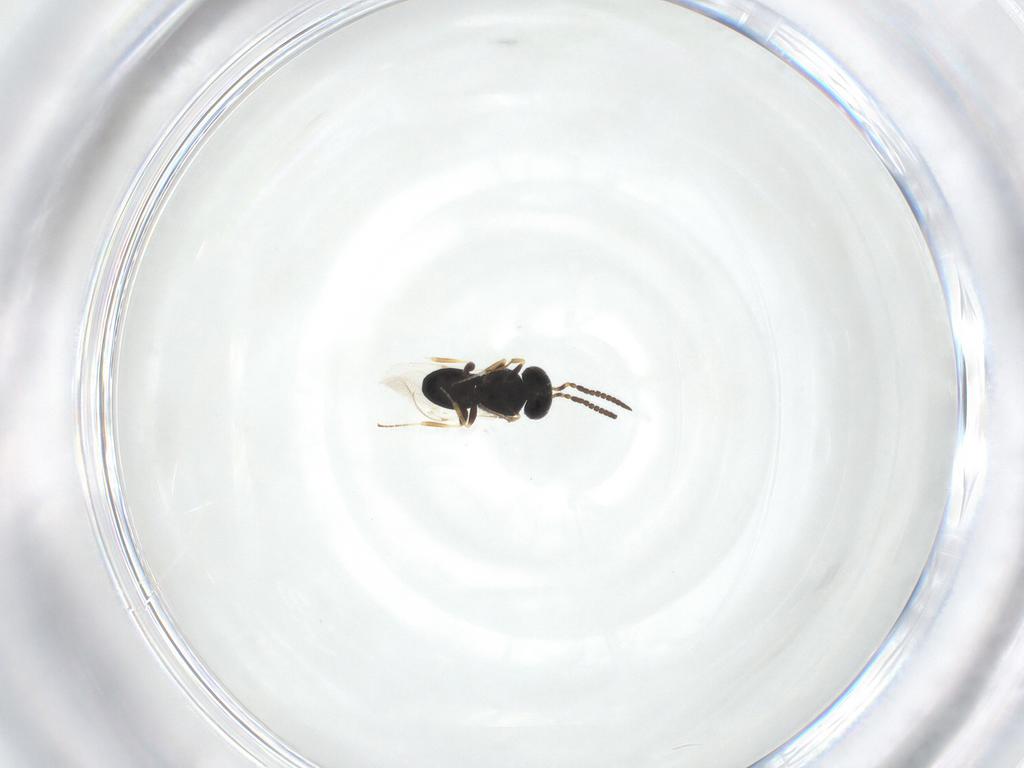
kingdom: Animalia
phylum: Arthropoda
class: Insecta
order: Hymenoptera
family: Scelionidae
